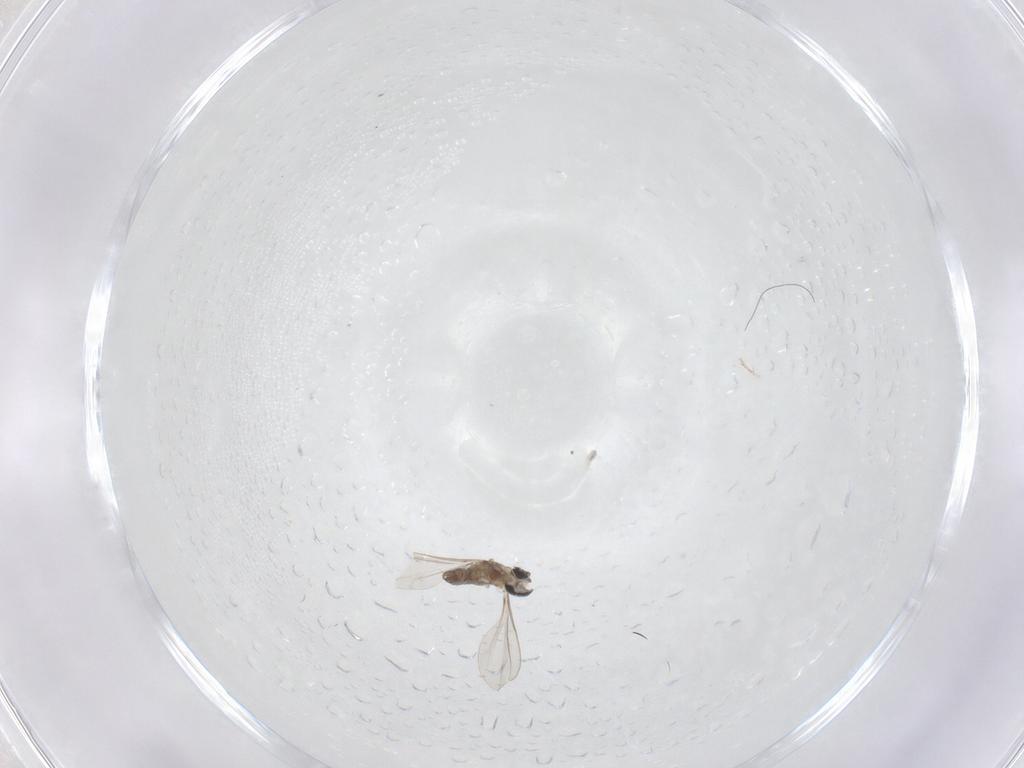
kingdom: Animalia
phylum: Arthropoda
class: Insecta
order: Diptera
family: Cecidomyiidae
